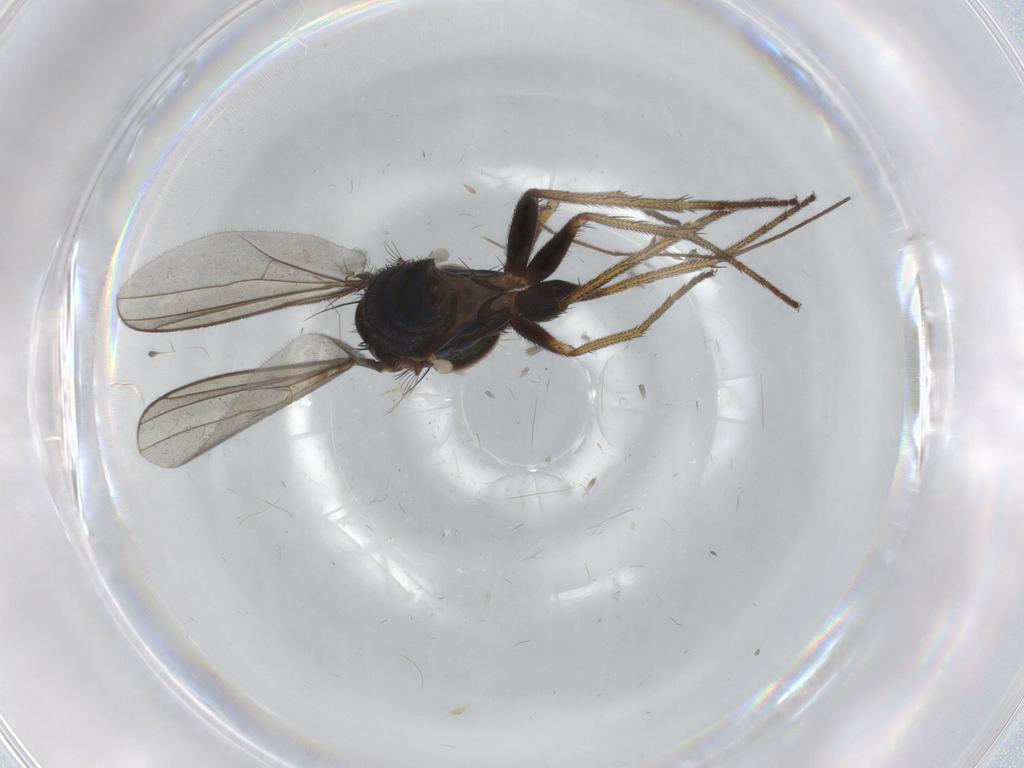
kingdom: Animalia
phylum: Arthropoda
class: Insecta
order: Diptera
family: Dolichopodidae
